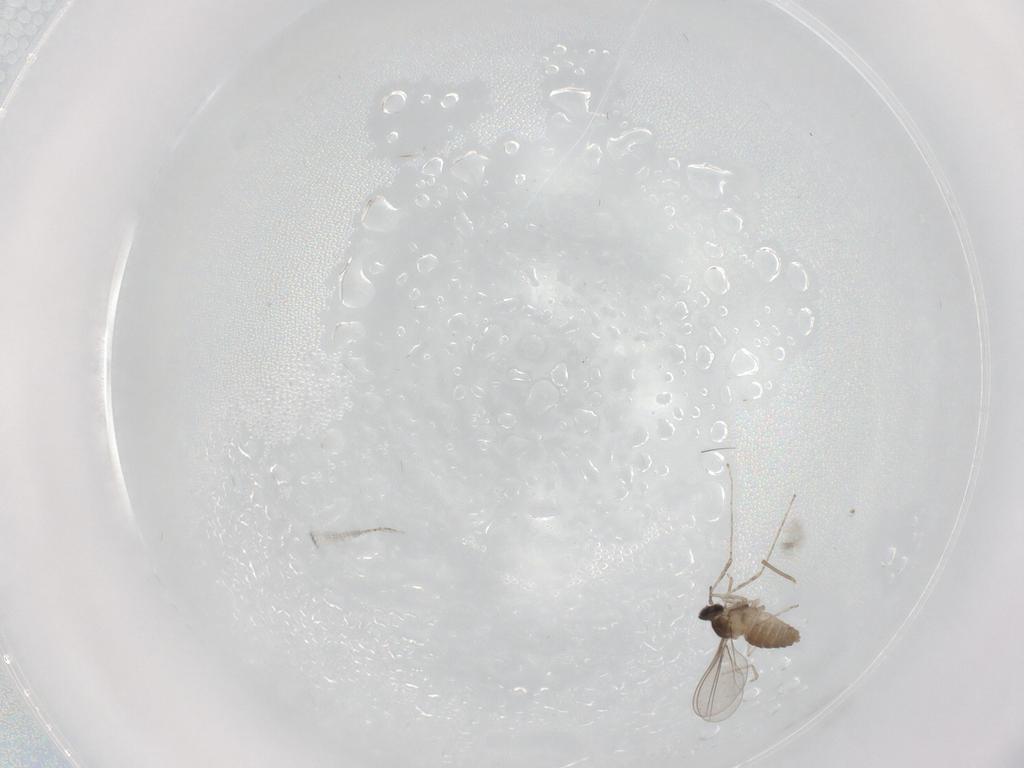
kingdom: Animalia
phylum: Arthropoda
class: Insecta
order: Diptera
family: Cecidomyiidae
